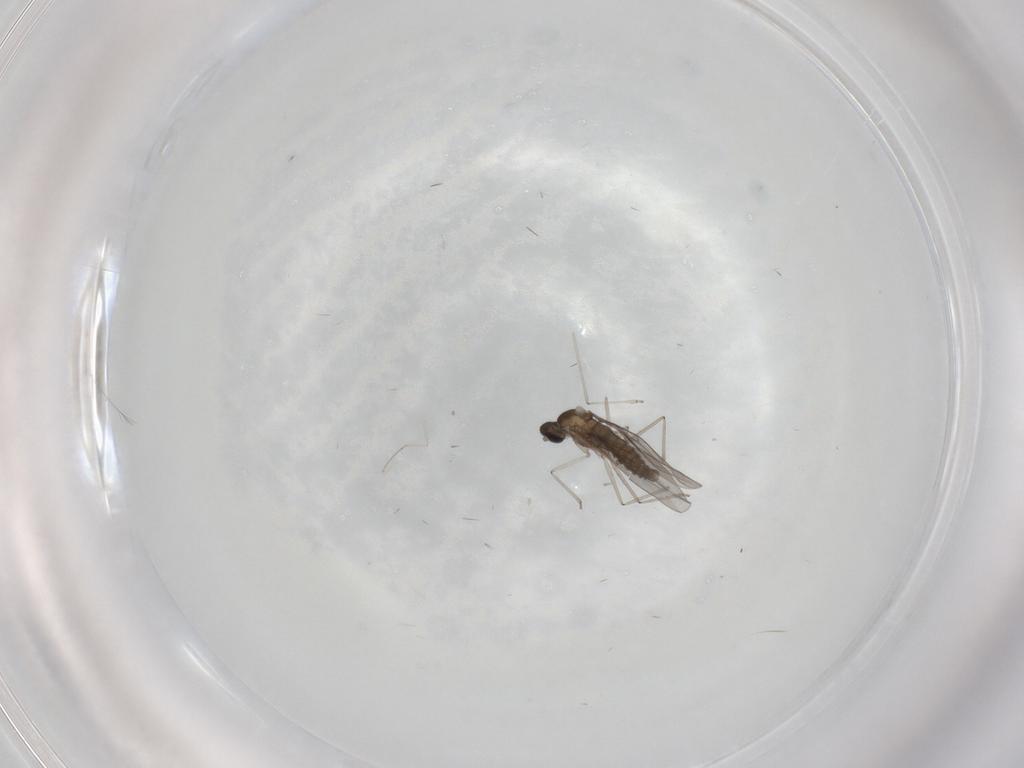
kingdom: Animalia
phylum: Arthropoda
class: Insecta
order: Diptera
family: Cecidomyiidae
